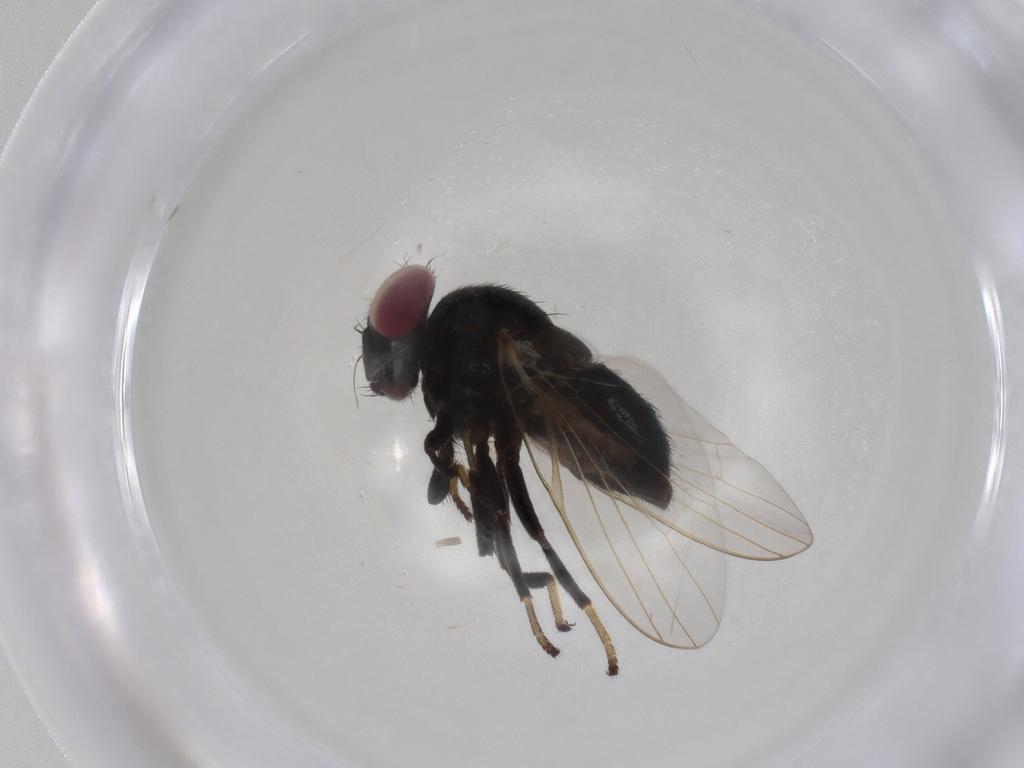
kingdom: Animalia
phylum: Arthropoda
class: Insecta
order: Diptera
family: Lonchaeidae
